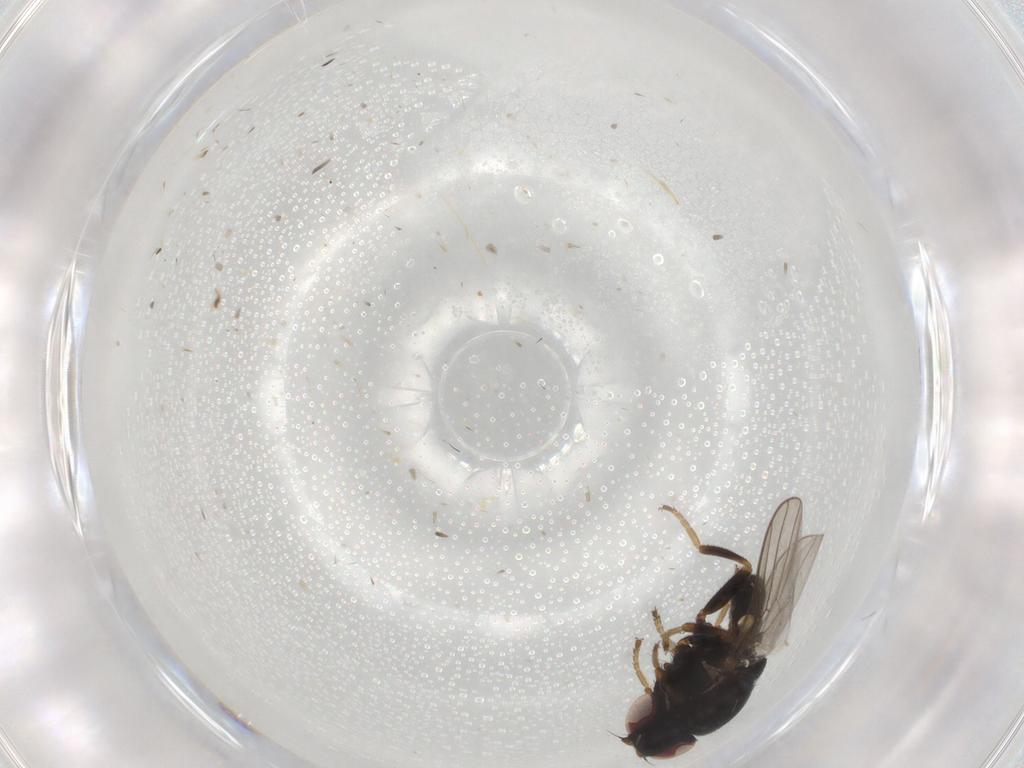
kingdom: Animalia
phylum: Arthropoda
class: Insecta
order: Diptera
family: Chloropidae
